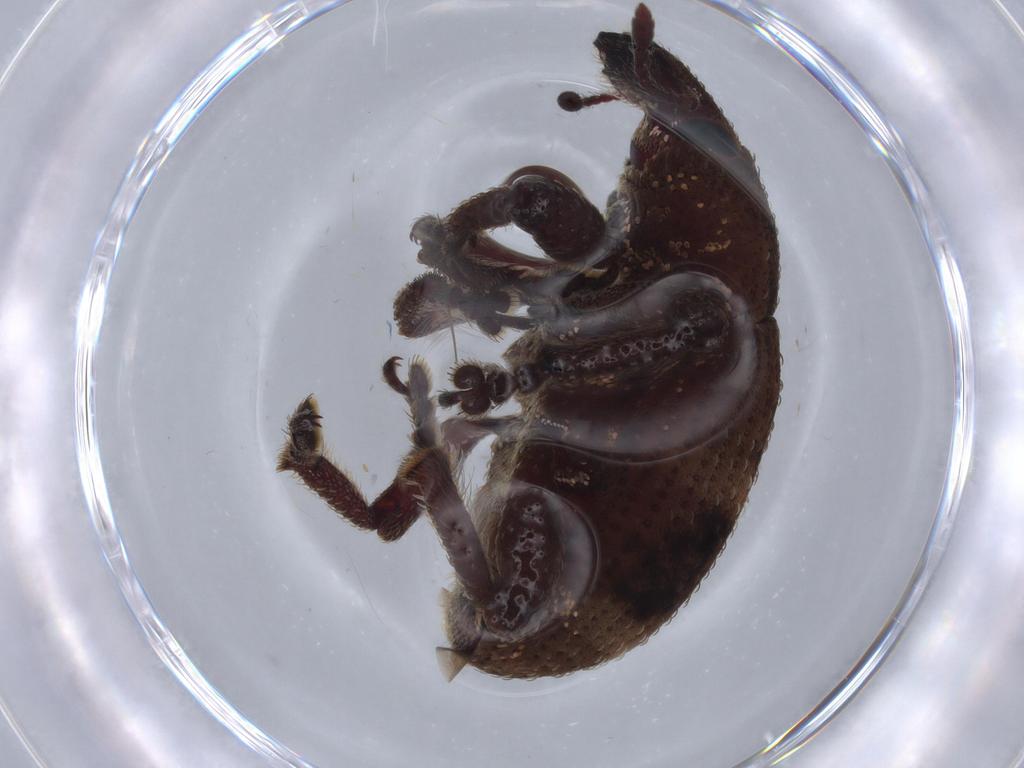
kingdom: Animalia
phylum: Arthropoda
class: Insecta
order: Coleoptera
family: Curculionidae
